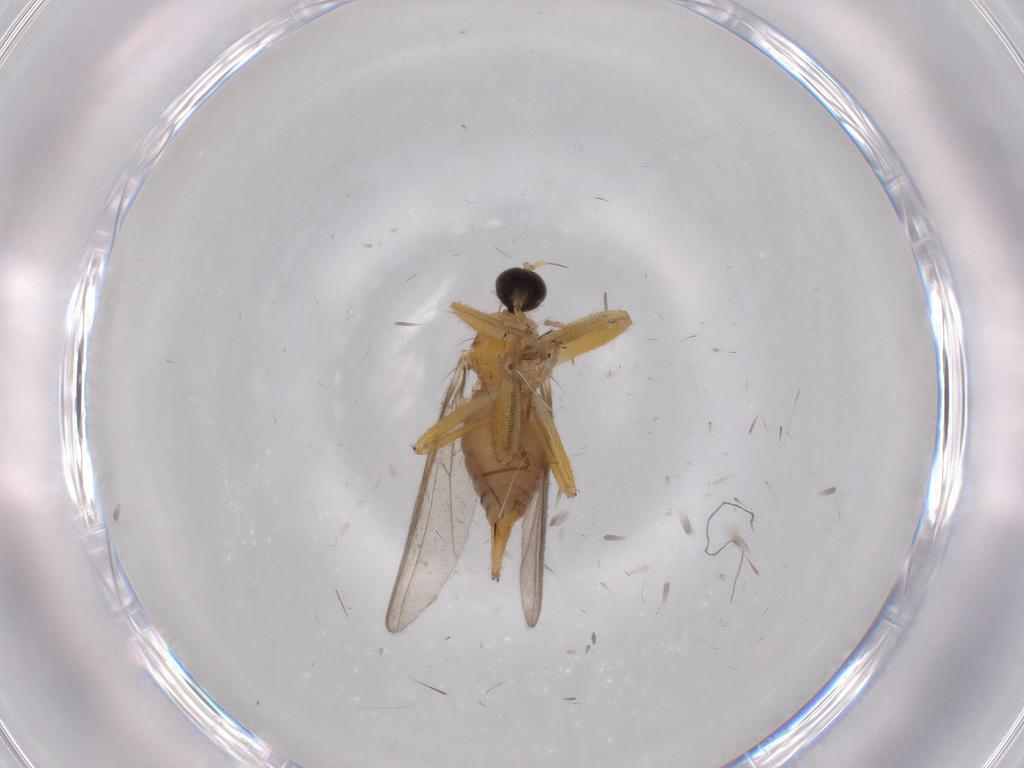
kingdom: Animalia
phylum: Arthropoda
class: Insecta
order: Diptera
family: Hybotidae
